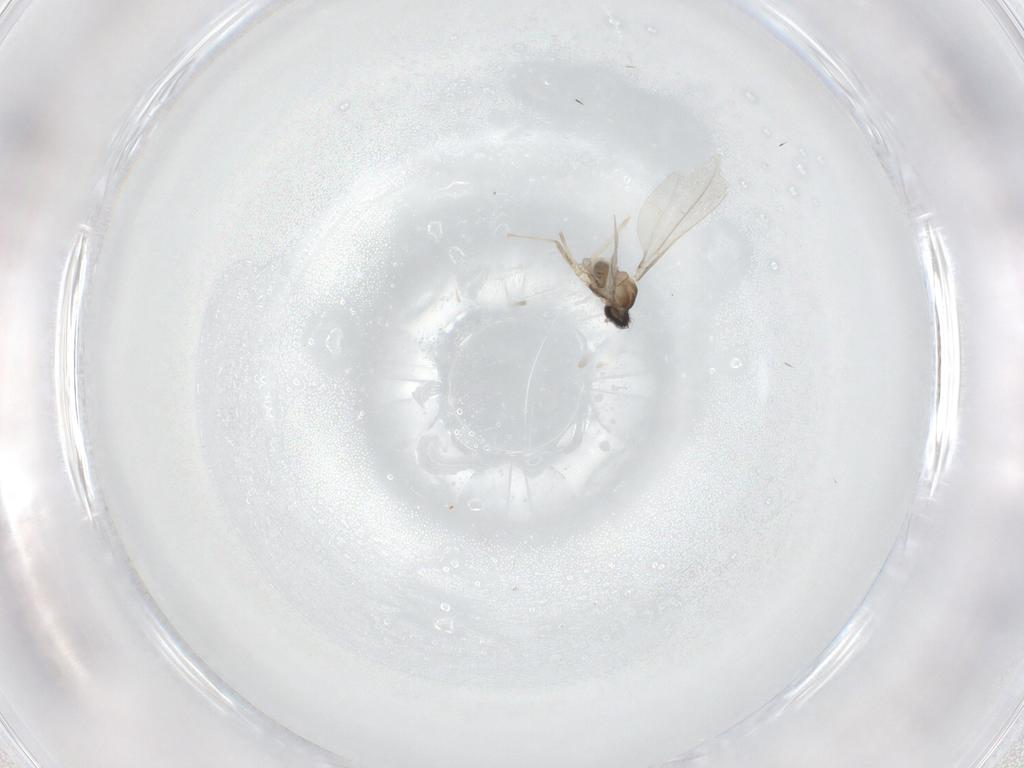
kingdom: Animalia
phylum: Arthropoda
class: Insecta
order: Diptera
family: Cecidomyiidae
